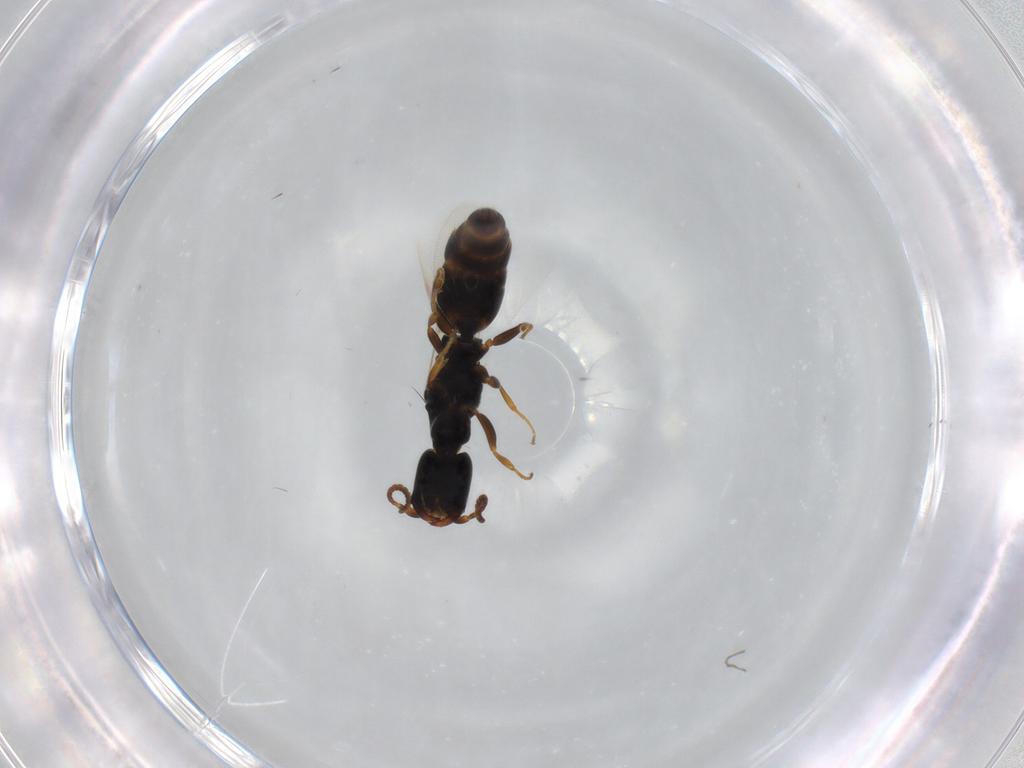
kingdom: Animalia
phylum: Arthropoda
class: Insecta
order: Hymenoptera
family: Bethylidae
